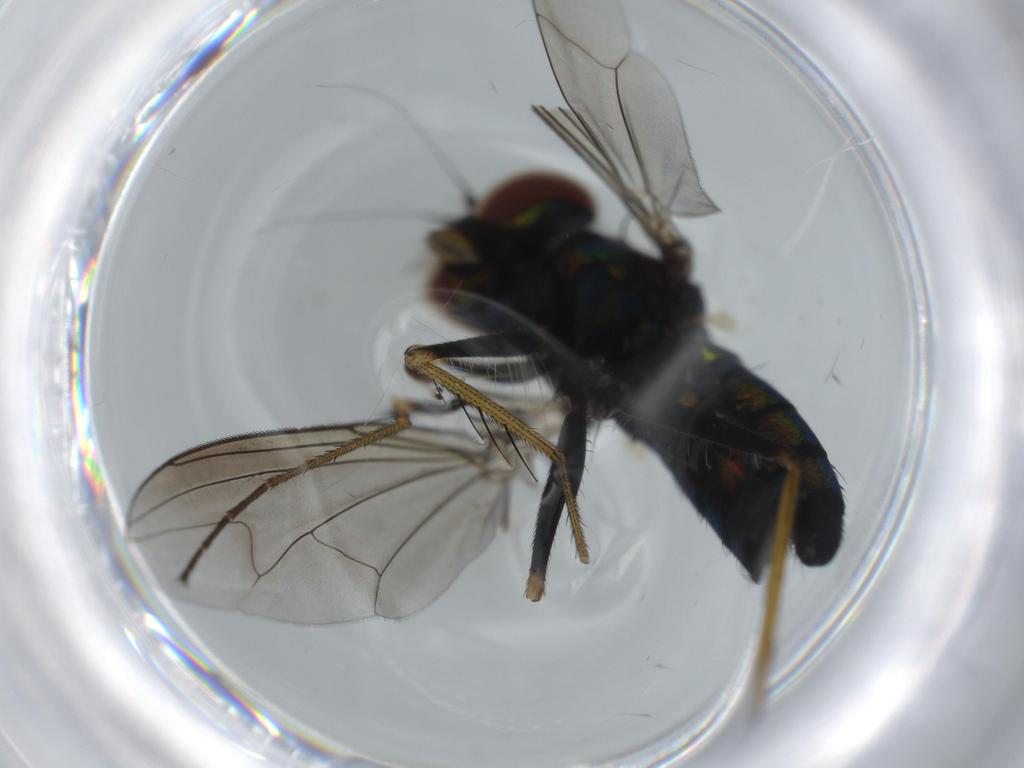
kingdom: Animalia
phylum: Arthropoda
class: Insecta
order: Diptera
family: Dolichopodidae
